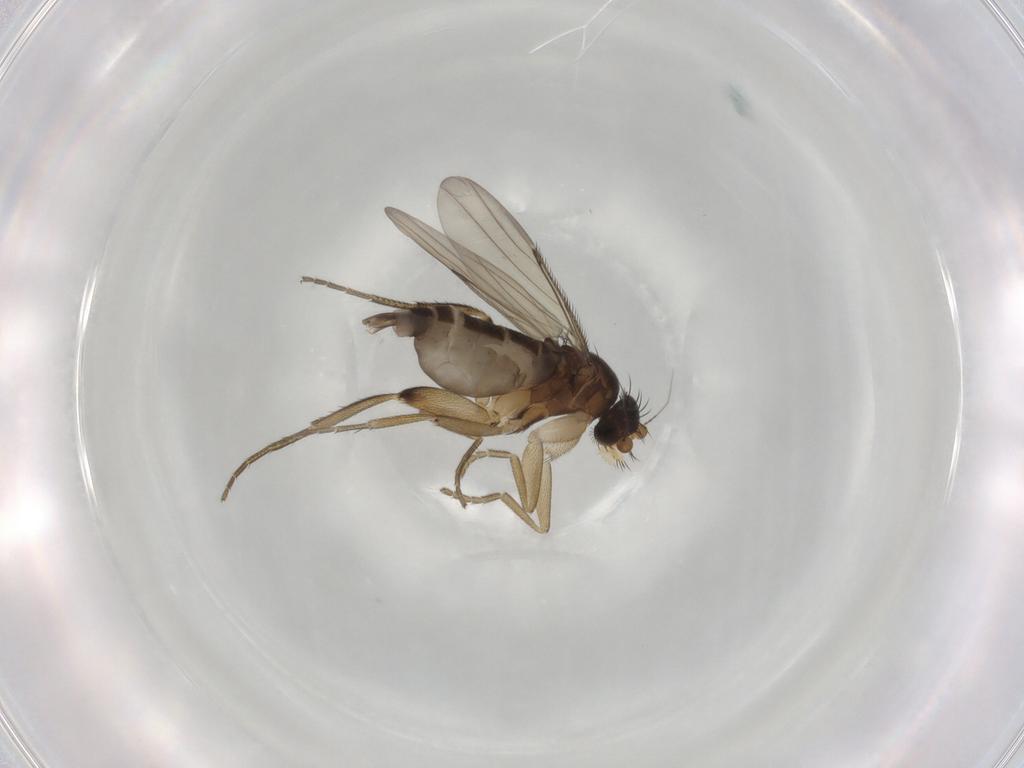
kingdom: Animalia
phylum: Arthropoda
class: Insecta
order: Diptera
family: Phoridae
